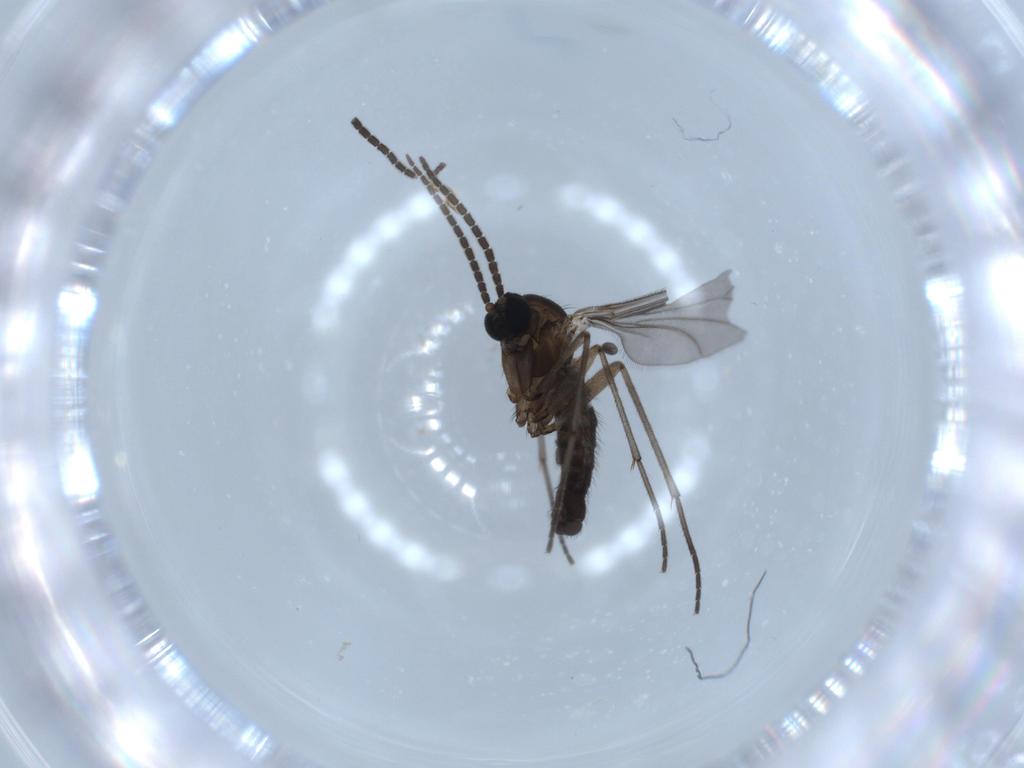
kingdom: Animalia
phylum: Arthropoda
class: Insecta
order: Diptera
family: Sciaridae
